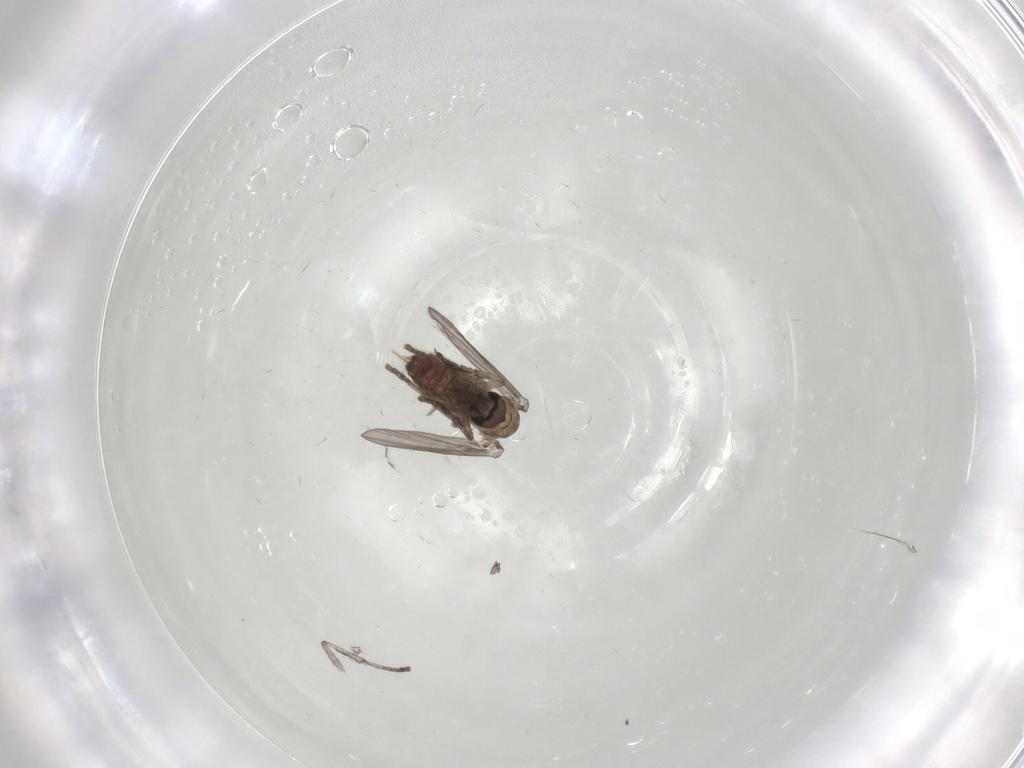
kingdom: Animalia
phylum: Arthropoda
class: Insecta
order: Diptera
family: Psychodidae
